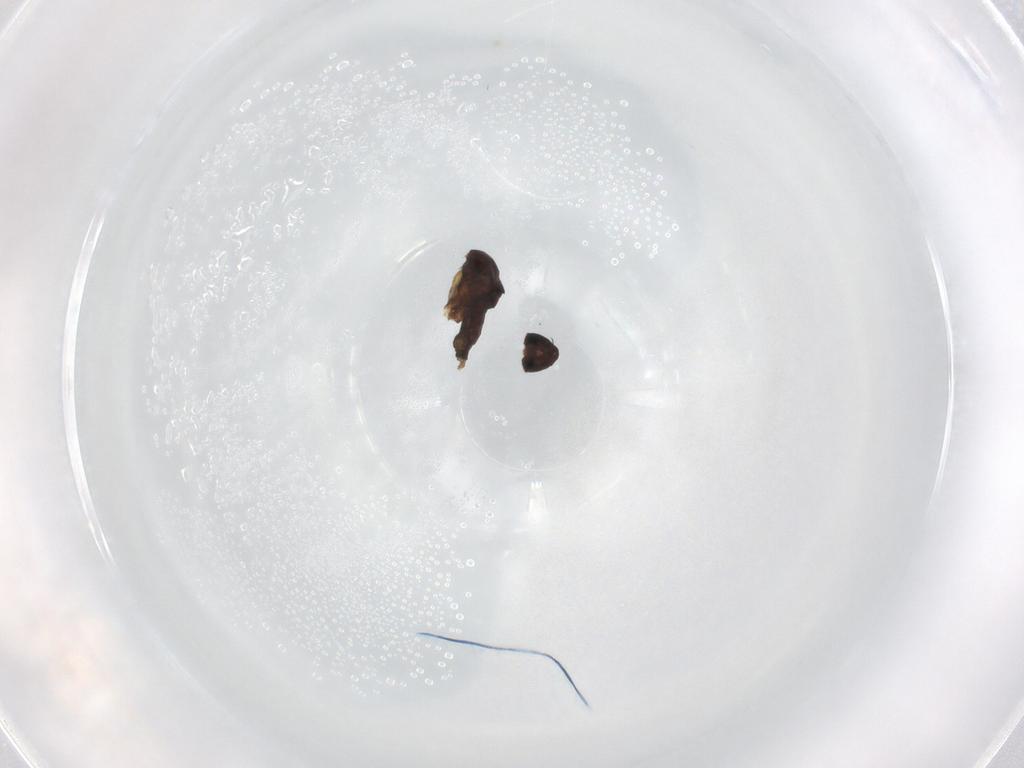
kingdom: Animalia
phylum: Arthropoda
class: Insecta
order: Diptera
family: Phoridae
